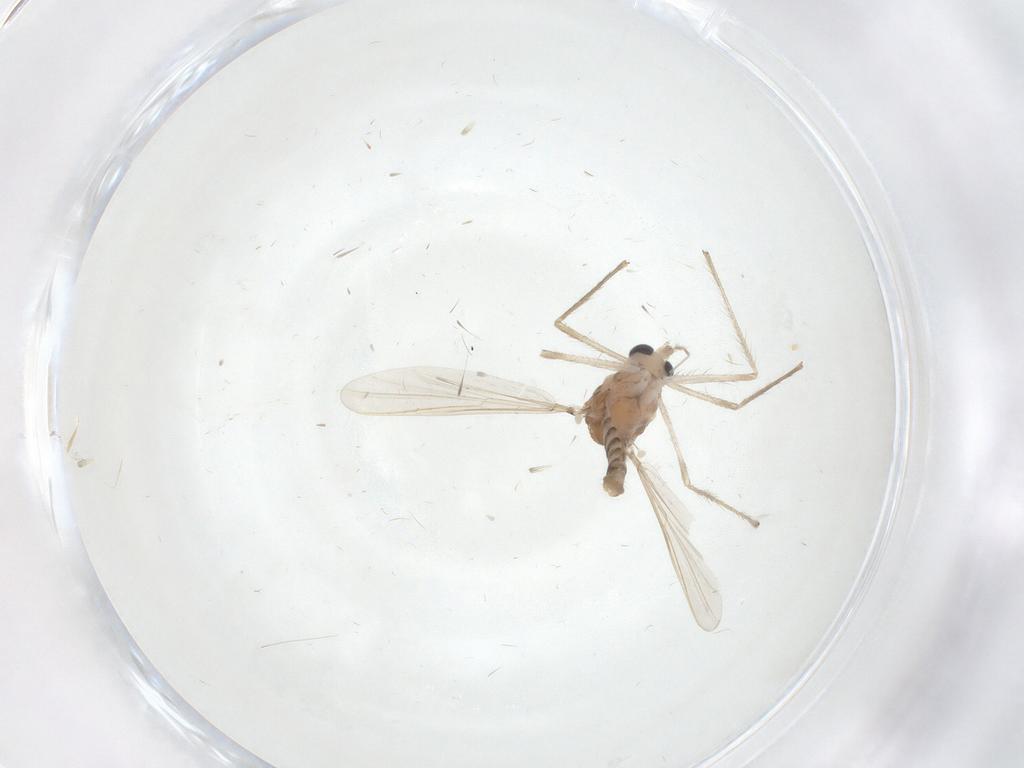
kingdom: Animalia
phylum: Arthropoda
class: Insecta
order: Diptera
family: Chironomidae
